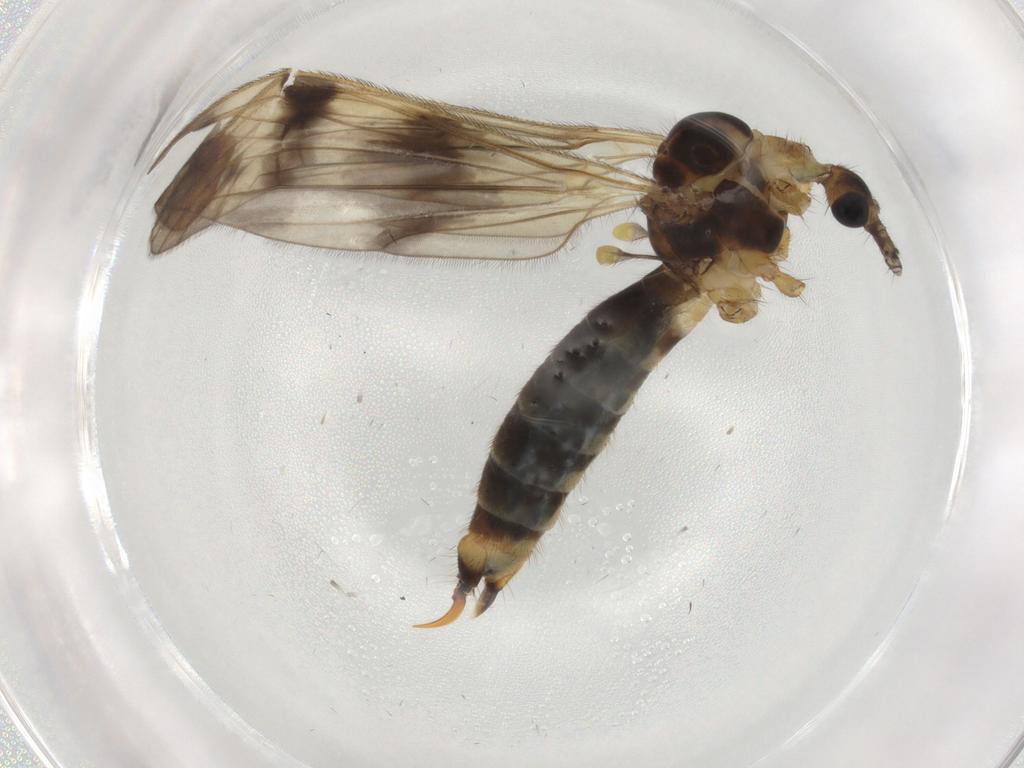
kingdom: Animalia
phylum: Arthropoda
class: Insecta
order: Diptera
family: Limoniidae
